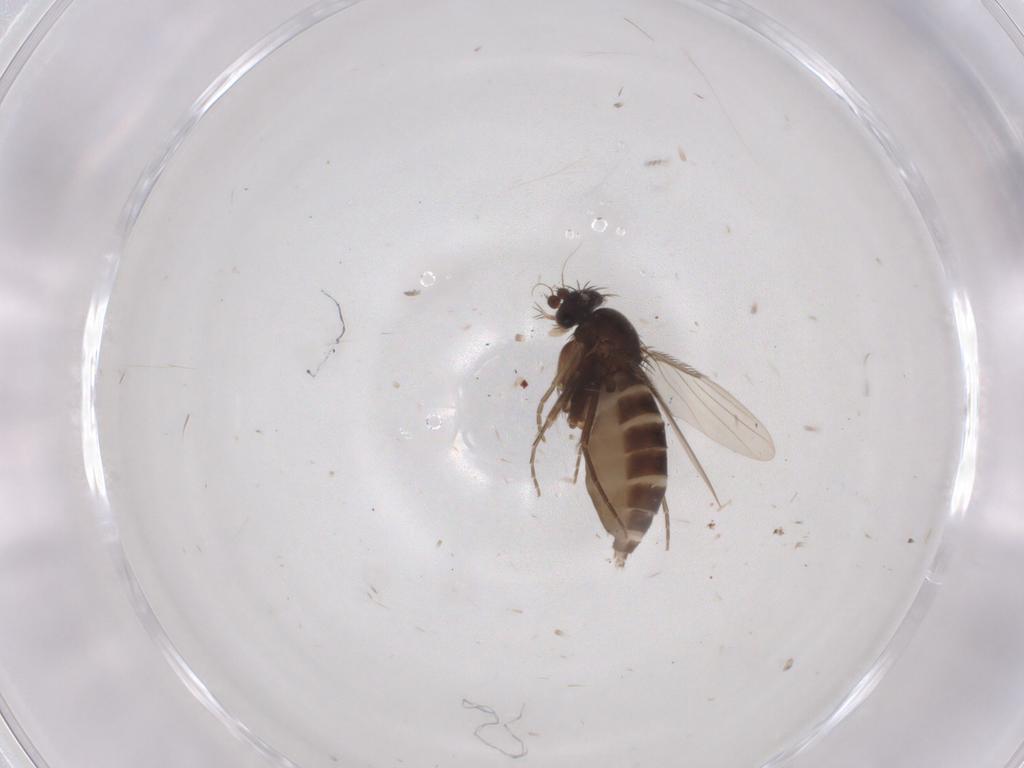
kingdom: Animalia
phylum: Arthropoda
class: Insecta
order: Diptera
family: Phoridae
